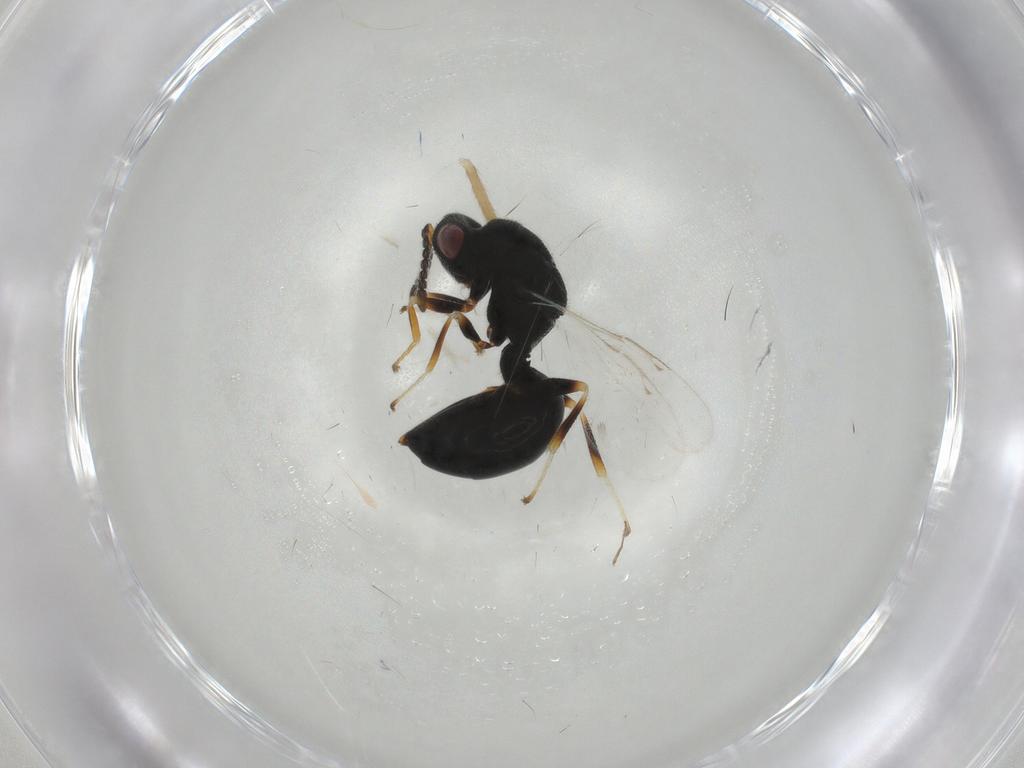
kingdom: Animalia
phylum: Arthropoda
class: Insecta
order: Hymenoptera
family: Eurytomidae
